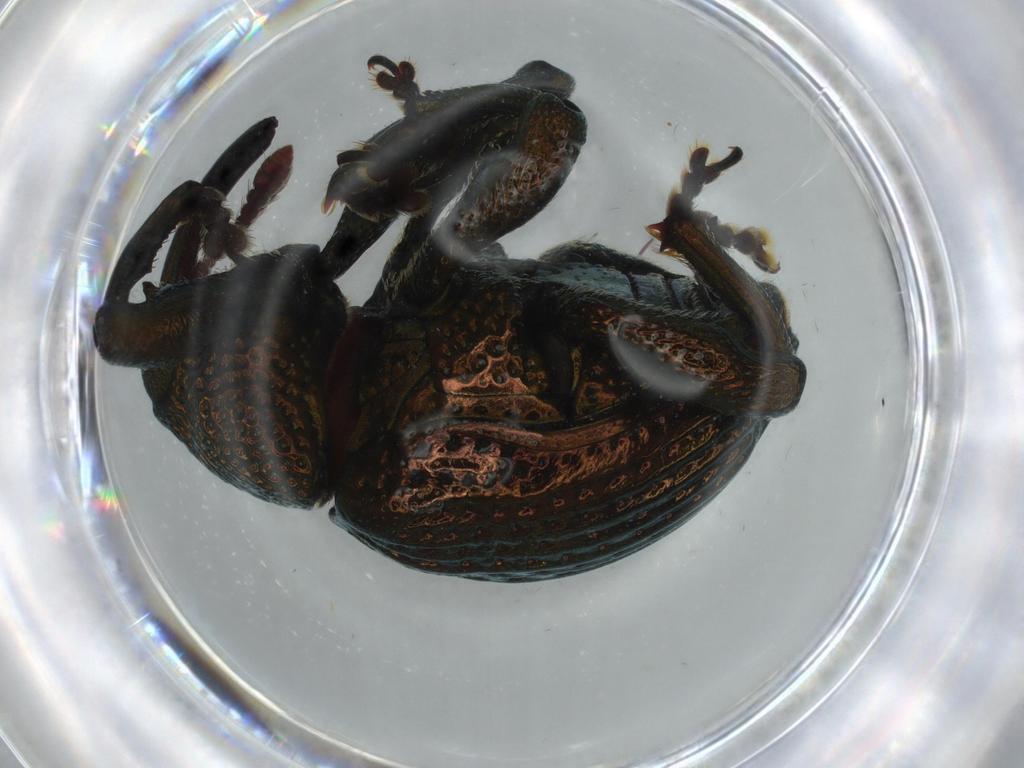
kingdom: Animalia
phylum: Arthropoda
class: Insecta
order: Coleoptera
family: Curculionidae
